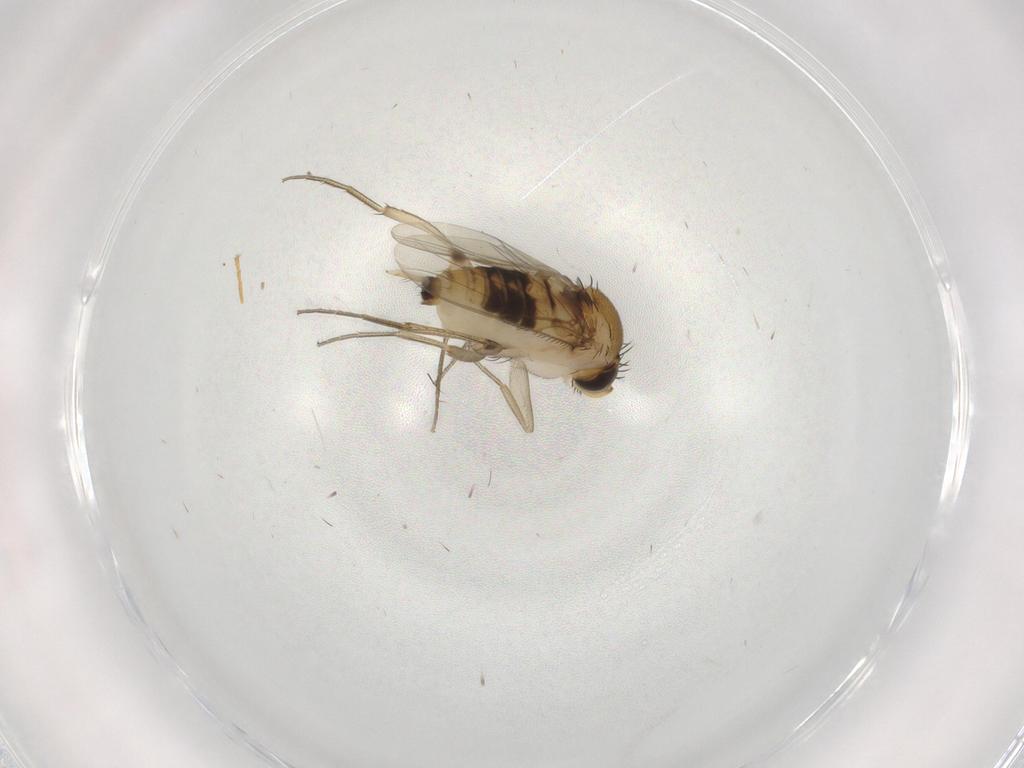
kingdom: Animalia
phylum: Arthropoda
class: Insecta
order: Diptera
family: Phoridae
